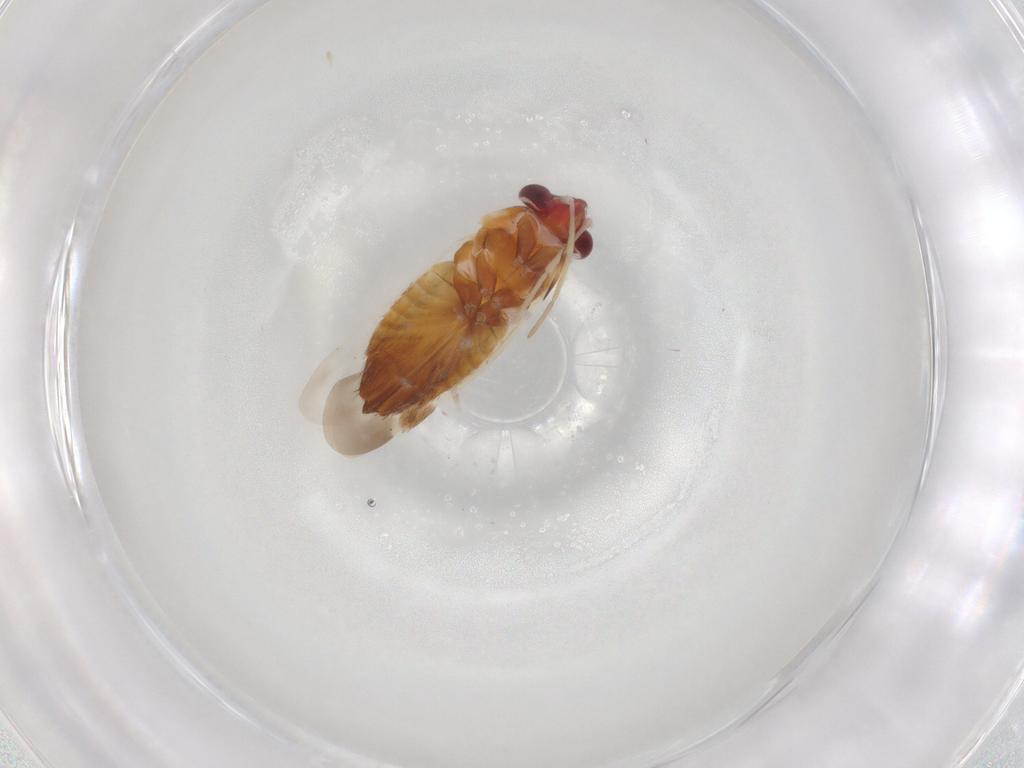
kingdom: Animalia
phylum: Arthropoda
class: Insecta
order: Hemiptera
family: Miridae
